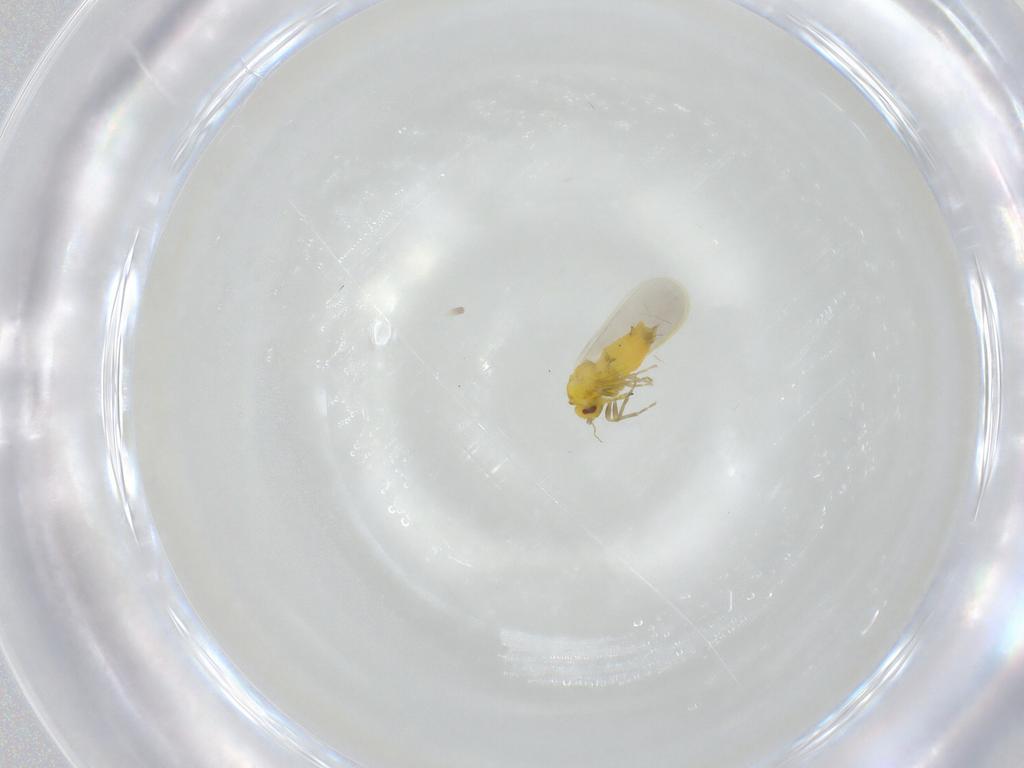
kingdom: Animalia
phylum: Arthropoda
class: Insecta
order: Hemiptera
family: Aleyrodidae
